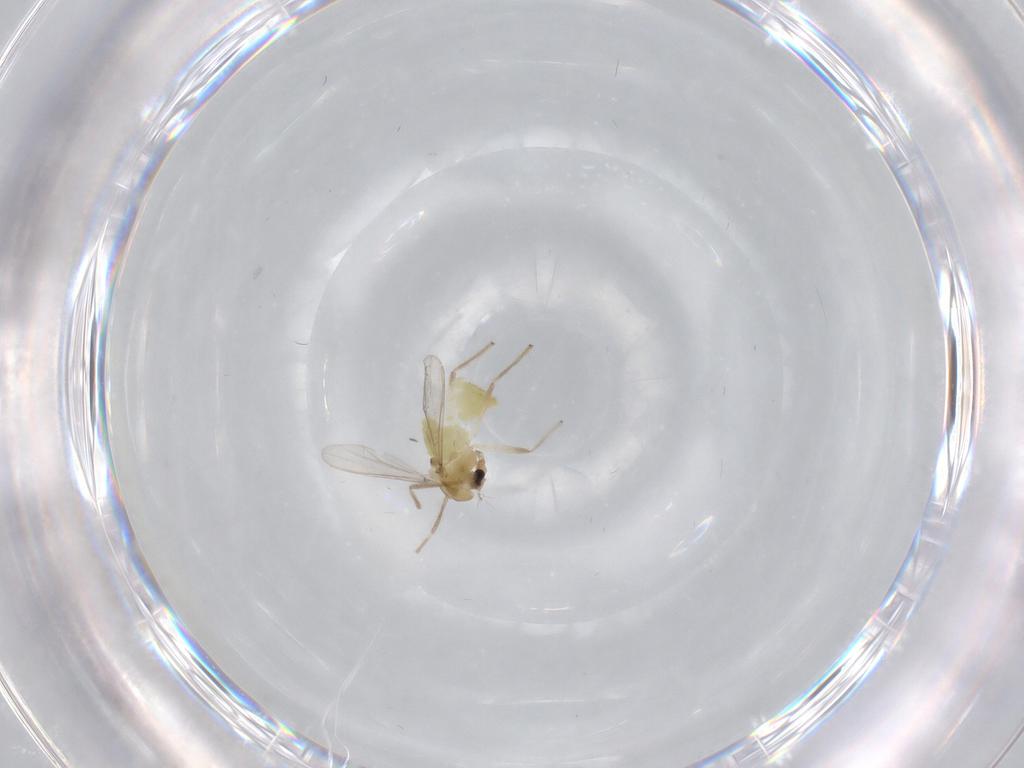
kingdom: Animalia
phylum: Arthropoda
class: Insecta
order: Diptera
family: Chironomidae
